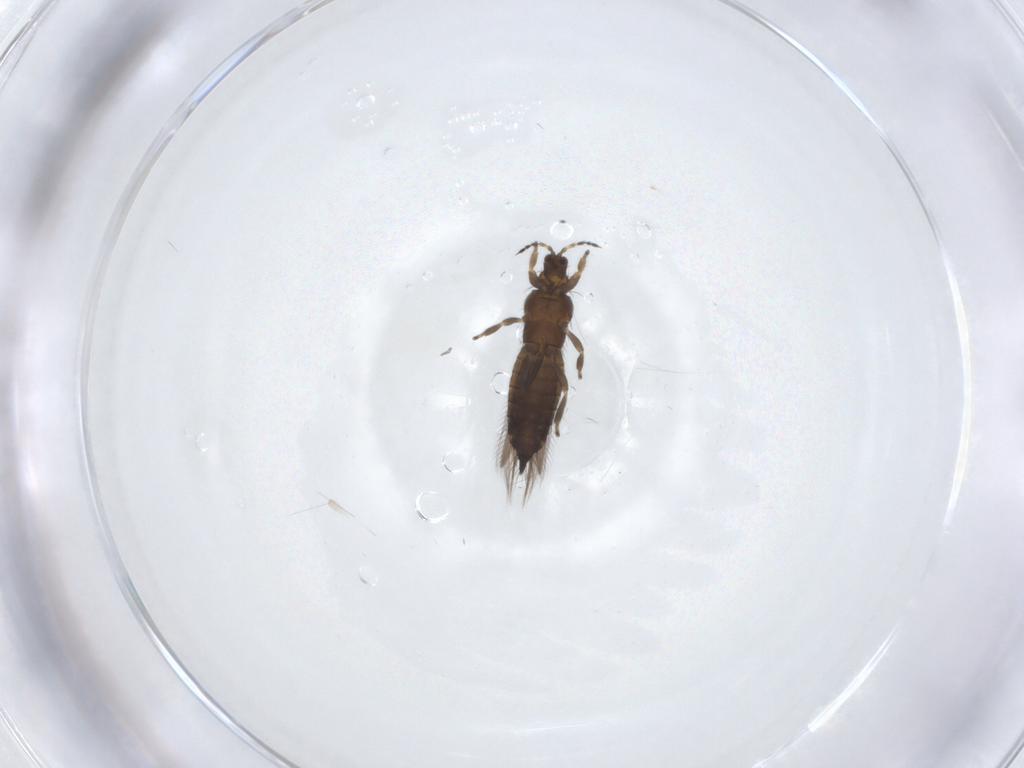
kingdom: Animalia
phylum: Arthropoda
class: Insecta
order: Thysanoptera
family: Thripidae
